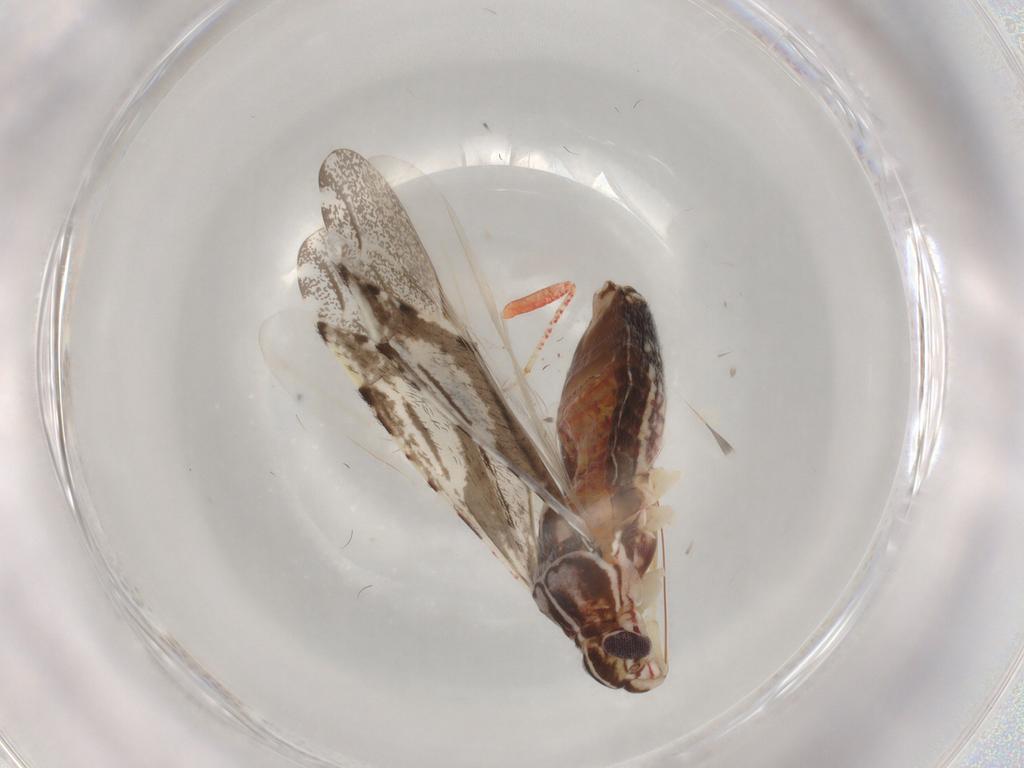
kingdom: Animalia
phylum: Arthropoda
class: Insecta
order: Hemiptera
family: Miridae
